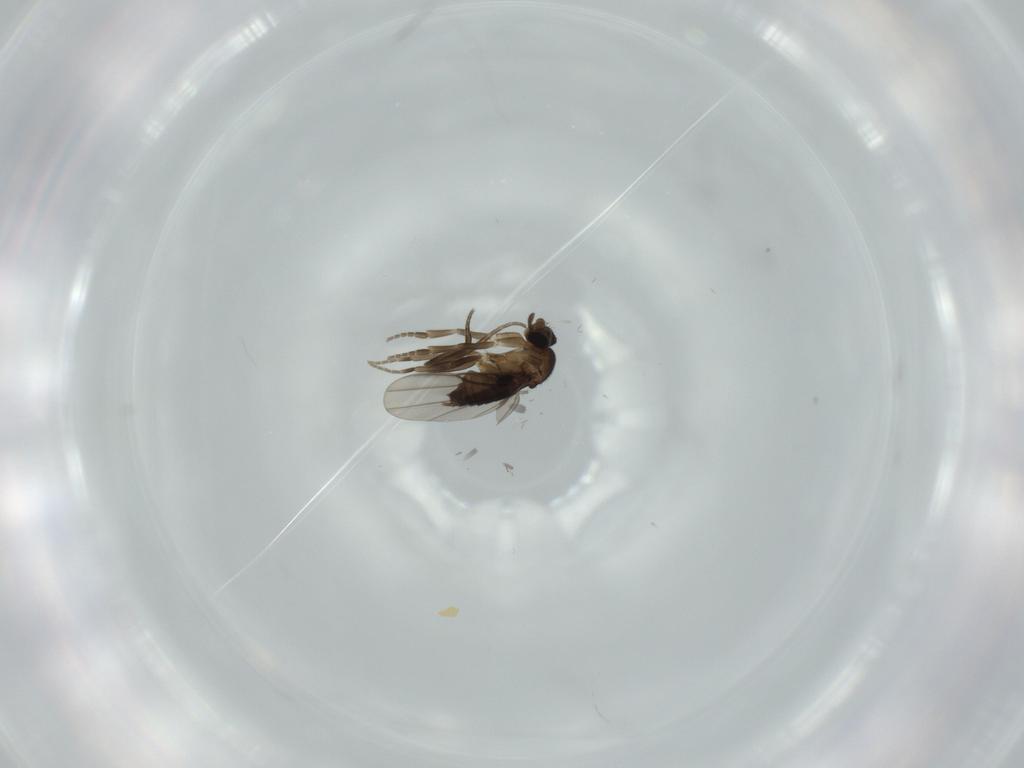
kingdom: Animalia
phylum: Arthropoda
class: Insecta
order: Diptera
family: Phoridae
